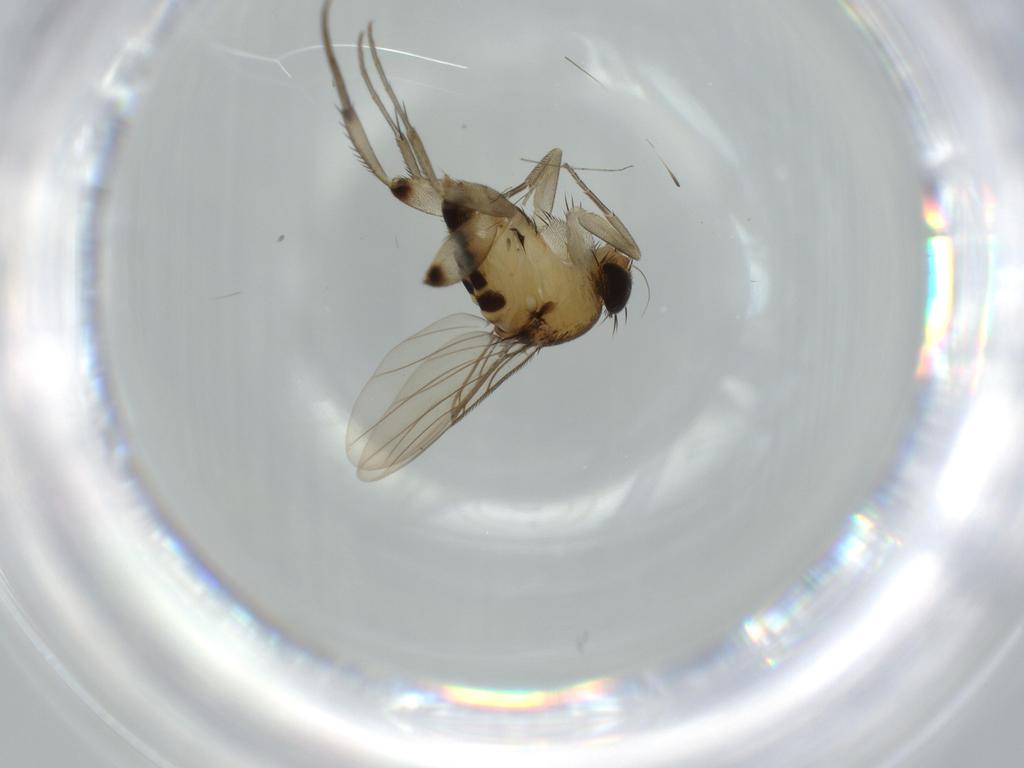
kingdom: Animalia
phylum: Arthropoda
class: Insecta
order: Diptera
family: Phoridae
